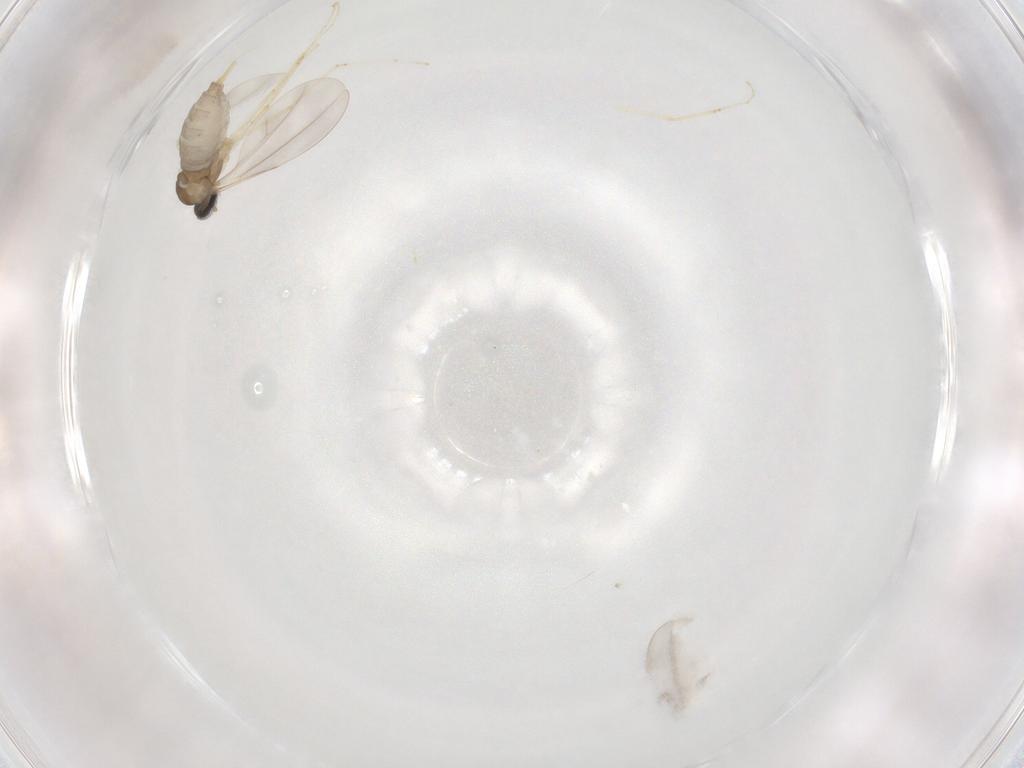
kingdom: Animalia
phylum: Arthropoda
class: Insecta
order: Diptera
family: Cecidomyiidae
